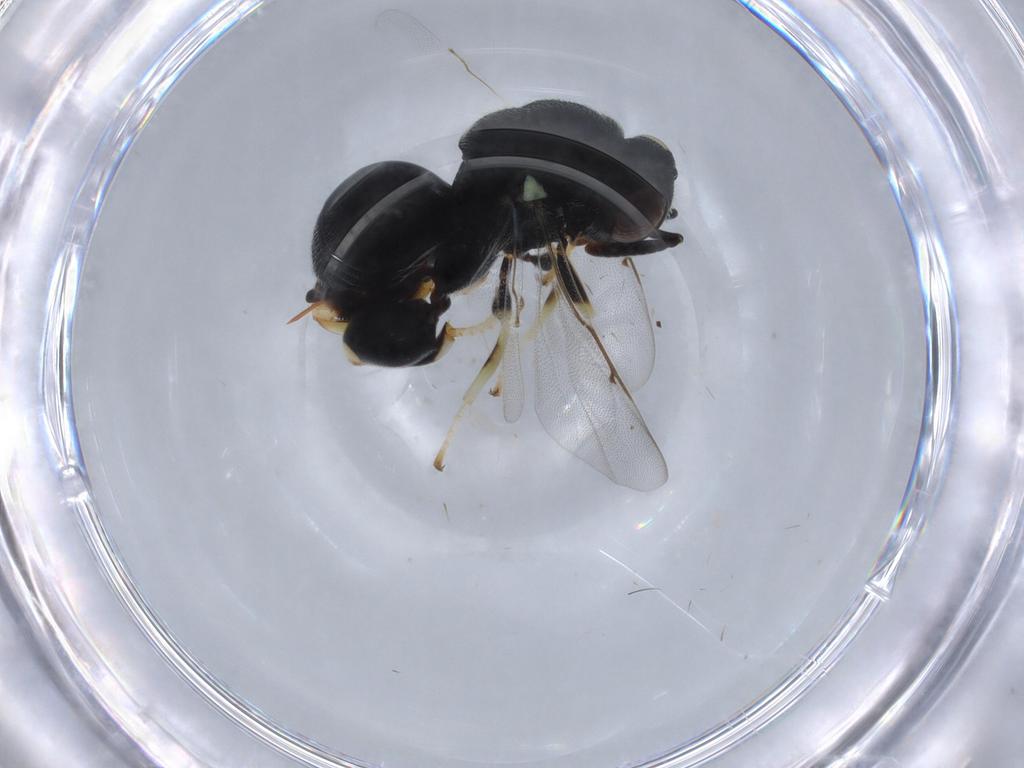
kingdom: Animalia
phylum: Arthropoda
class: Insecta
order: Hymenoptera
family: Chalcididae
